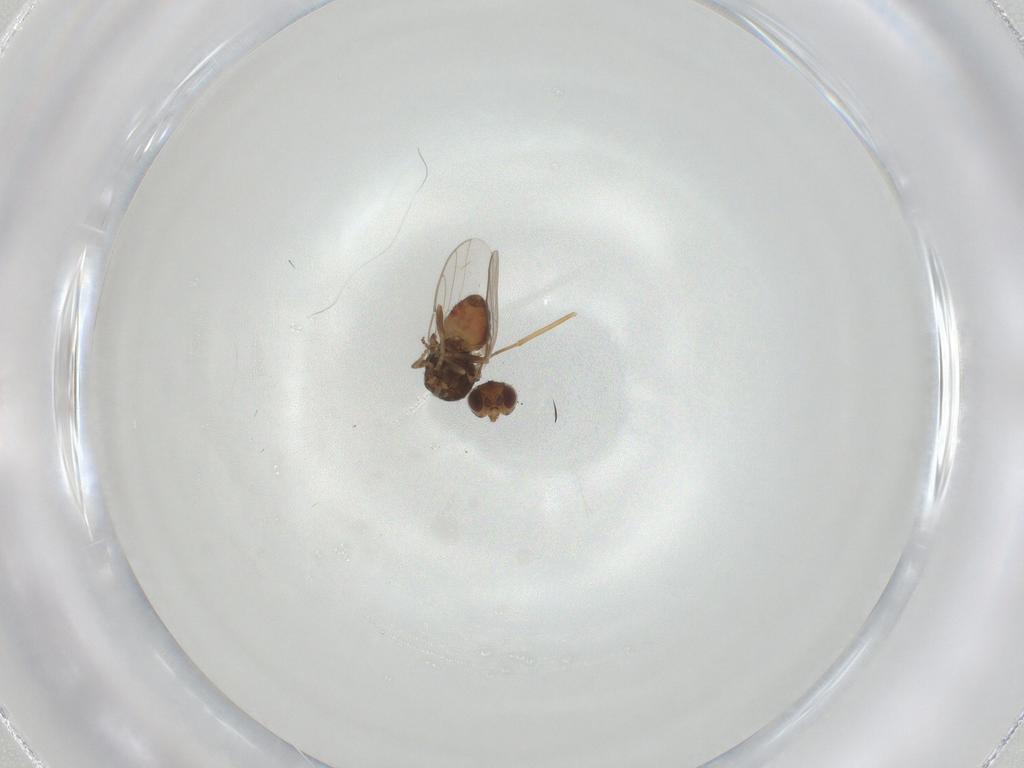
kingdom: Animalia
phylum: Arthropoda
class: Insecta
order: Diptera
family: Chloropidae
